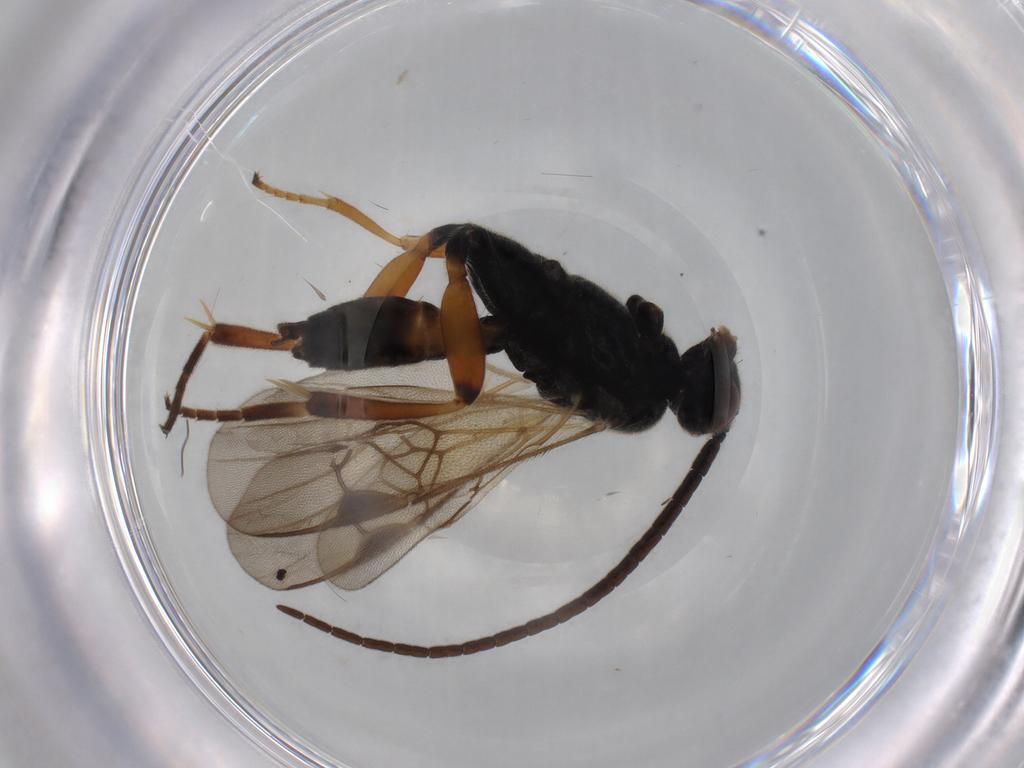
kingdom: Animalia
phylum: Arthropoda
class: Insecta
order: Hymenoptera
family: Braconidae
